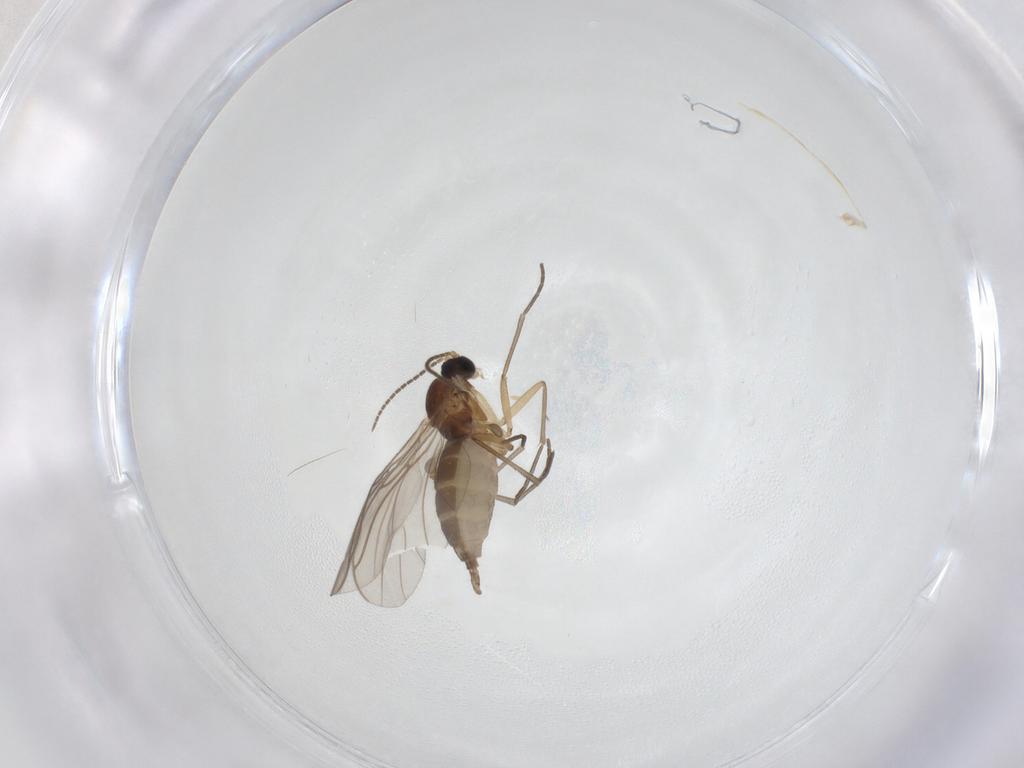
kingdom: Animalia
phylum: Arthropoda
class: Insecta
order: Diptera
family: Sciaridae
